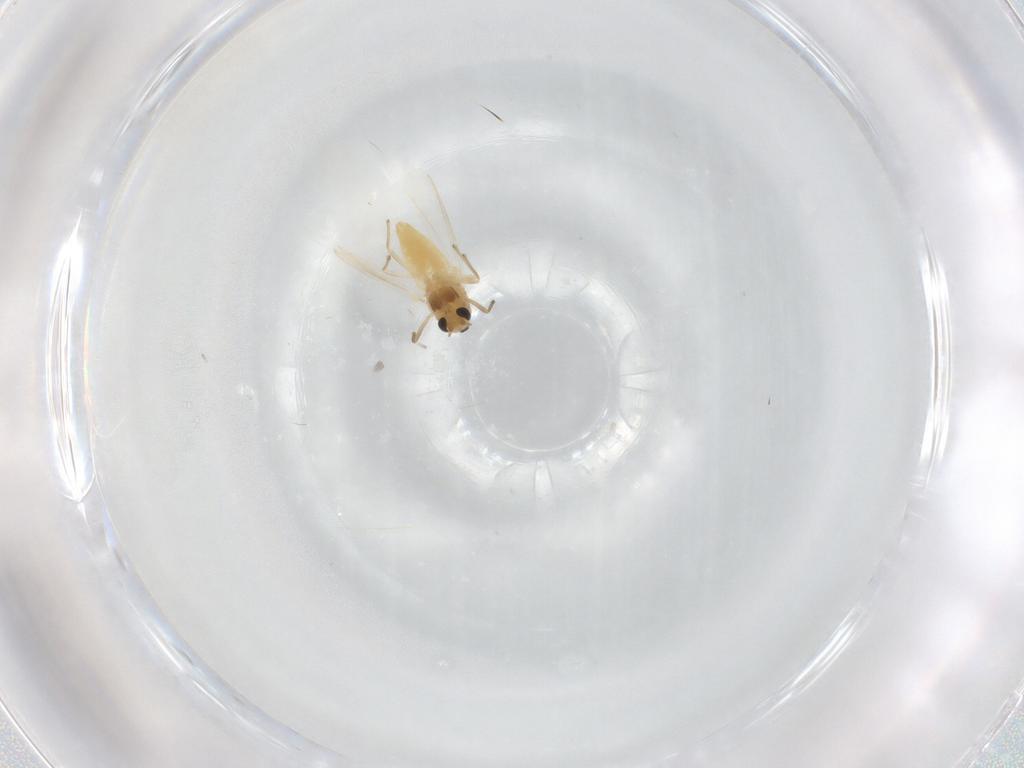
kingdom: Animalia
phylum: Arthropoda
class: Insecta
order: Diptera
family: Chironomidae
